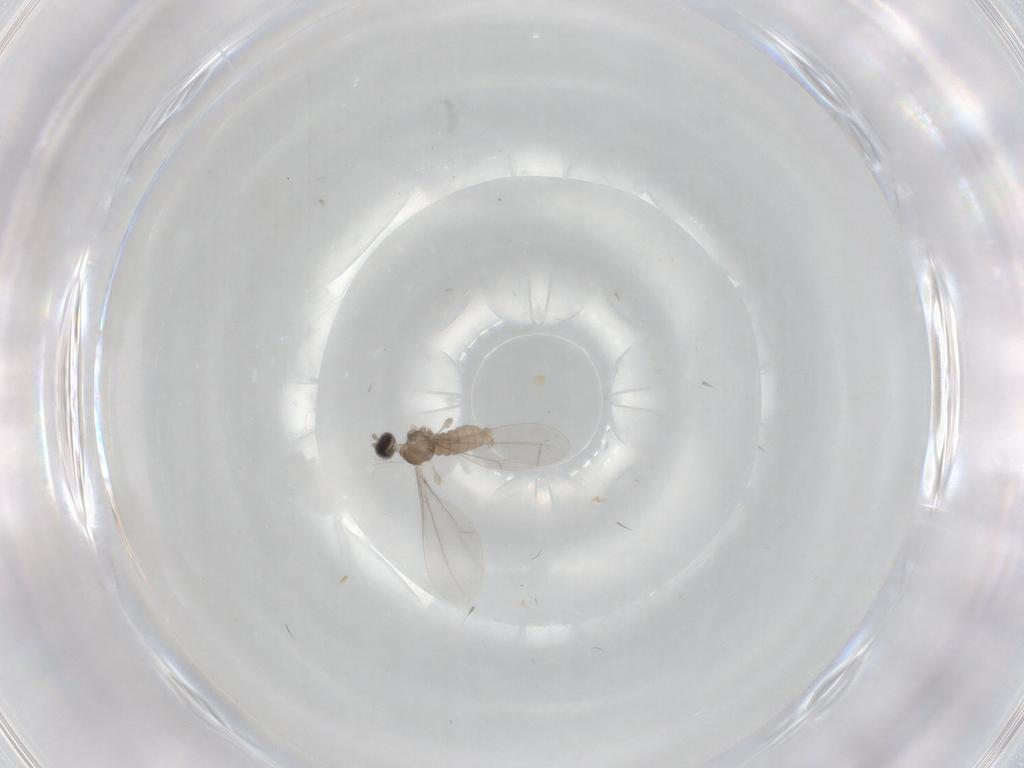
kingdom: Animalia
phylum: Arthropoda
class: Insecta
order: Diptera
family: Cecidomyiidae
